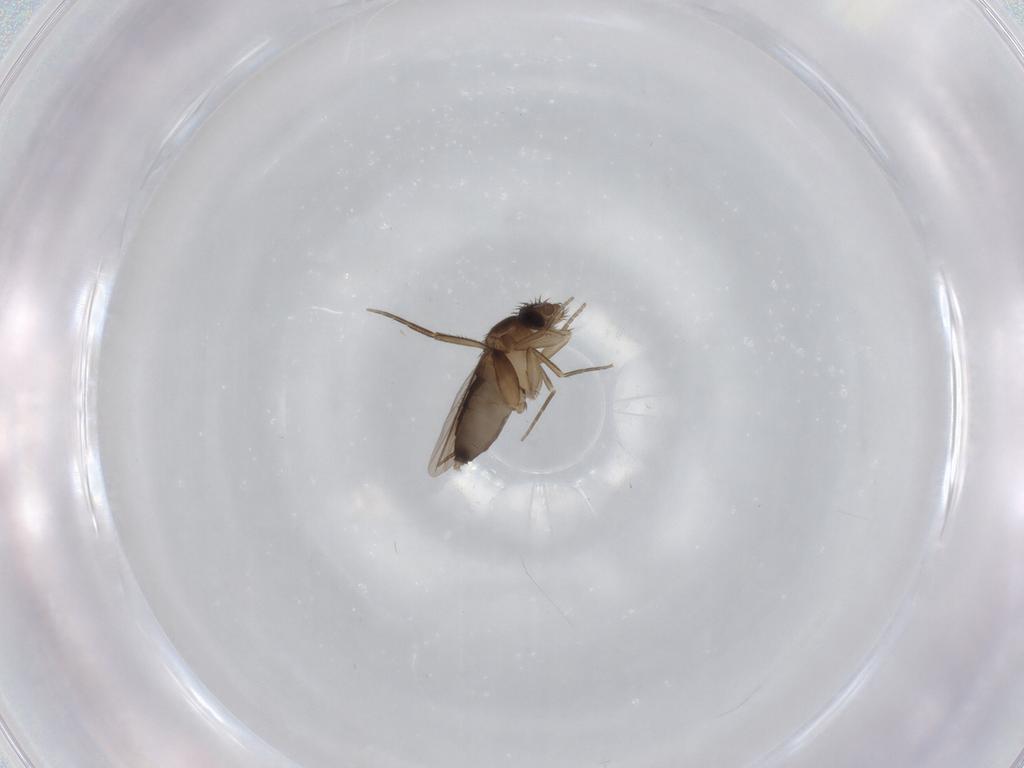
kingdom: Animalia
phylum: Arthropoda
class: Insecta
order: Diptera
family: Phoridae
